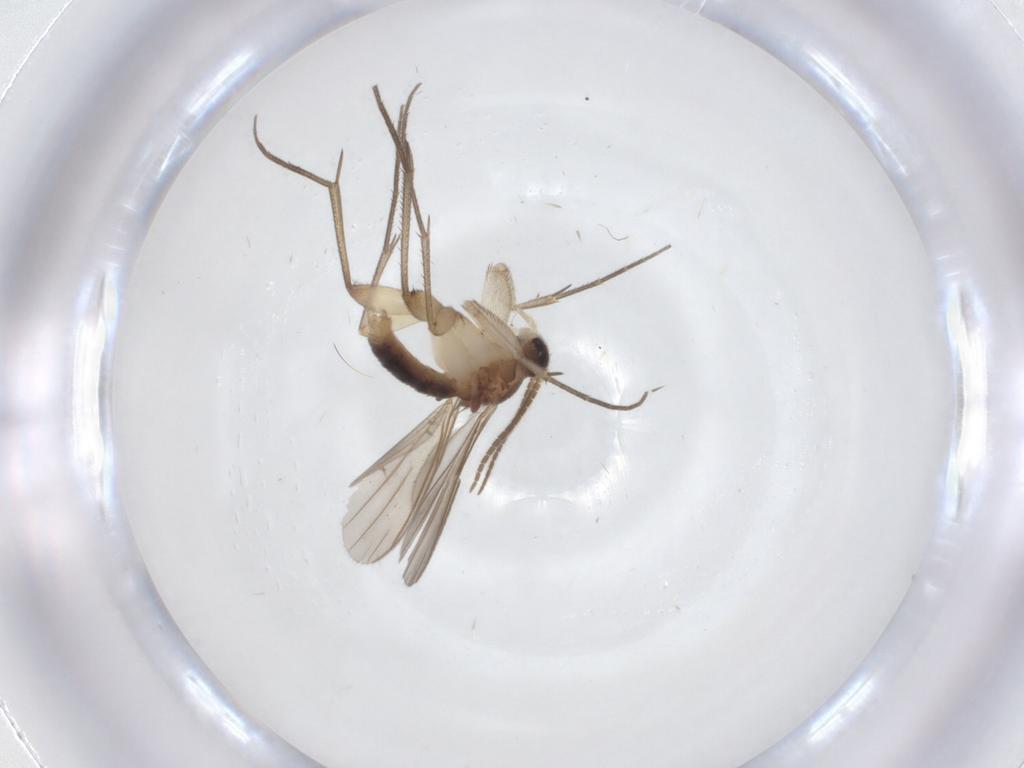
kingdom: Animalia
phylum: Arthropoda
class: Insecta
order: Diptera
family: Mycetophilidae
